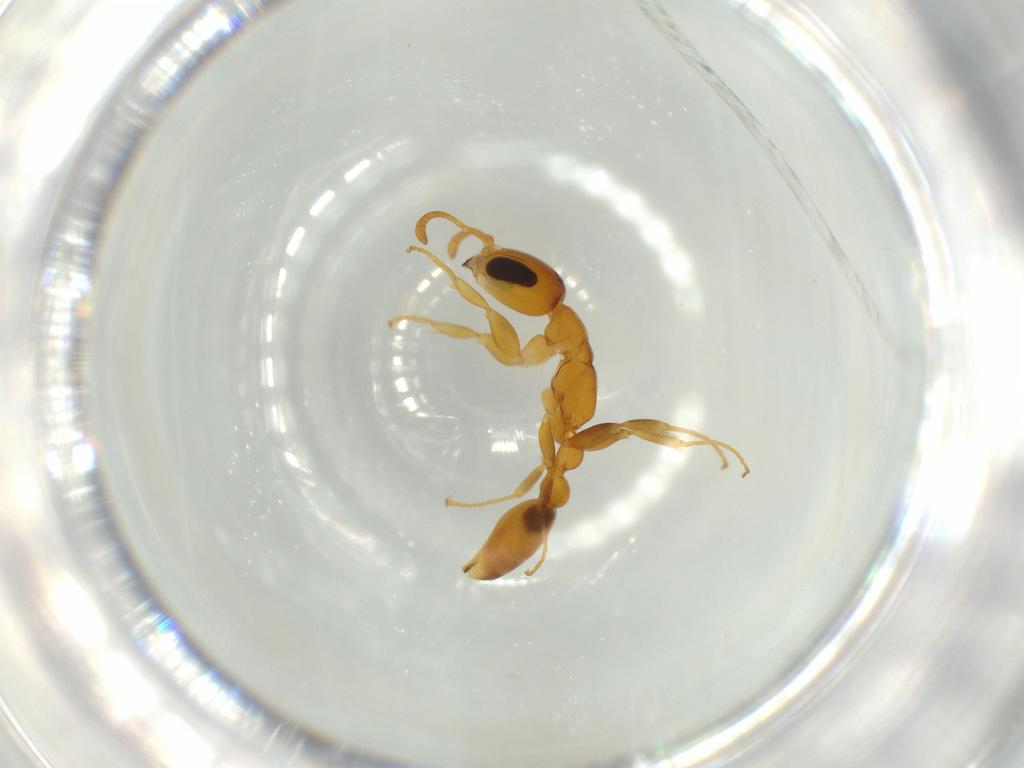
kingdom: Animalia
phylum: Arthropoda
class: Insecta
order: Hymenoptera
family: Formicidae
